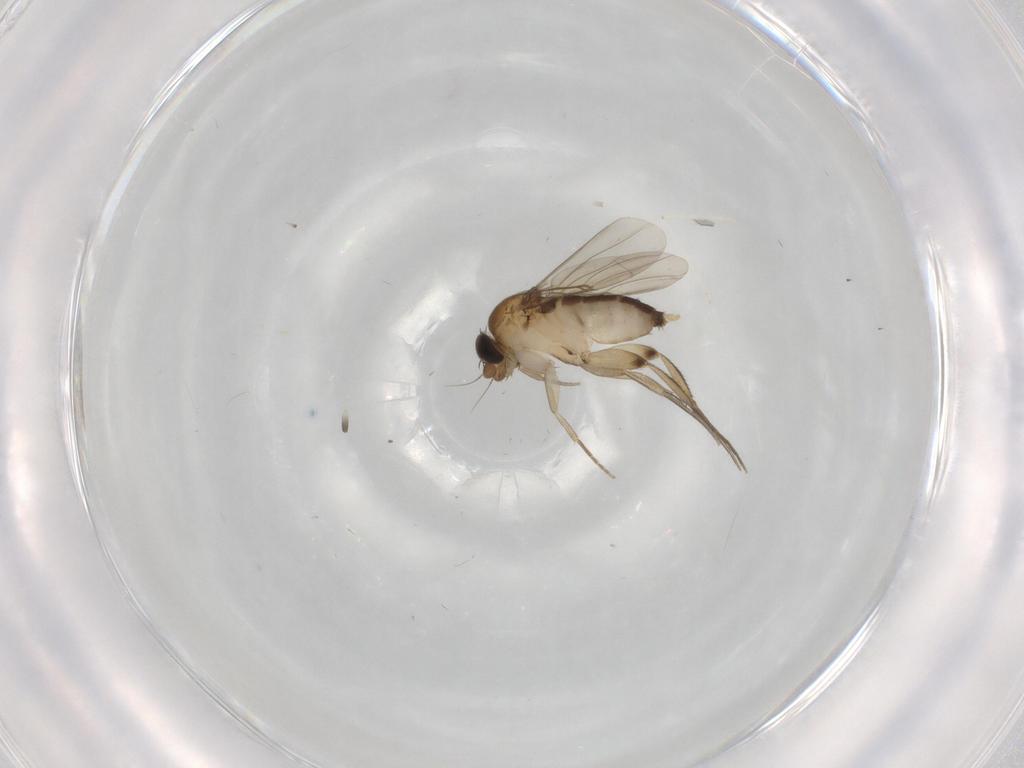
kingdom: Animalia
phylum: Arthropoda
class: Insecta
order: Diptera
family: Phoridae
